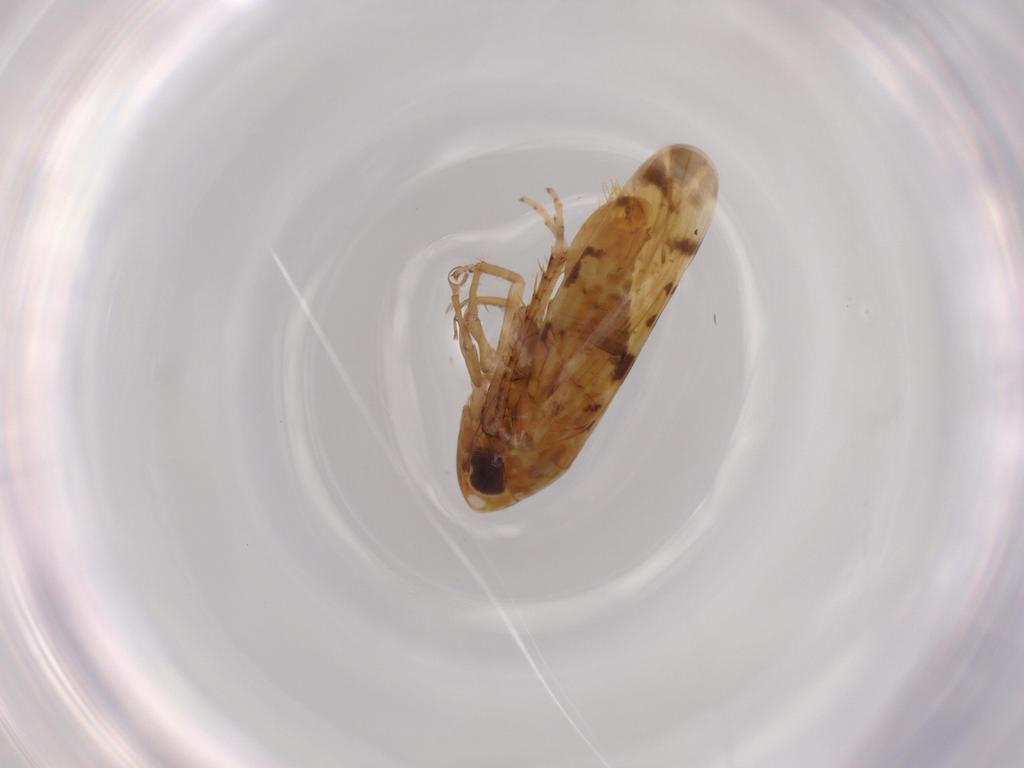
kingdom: Animalia
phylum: Arthropoda
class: Insecta
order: Hemiptera
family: Cicadellidae
